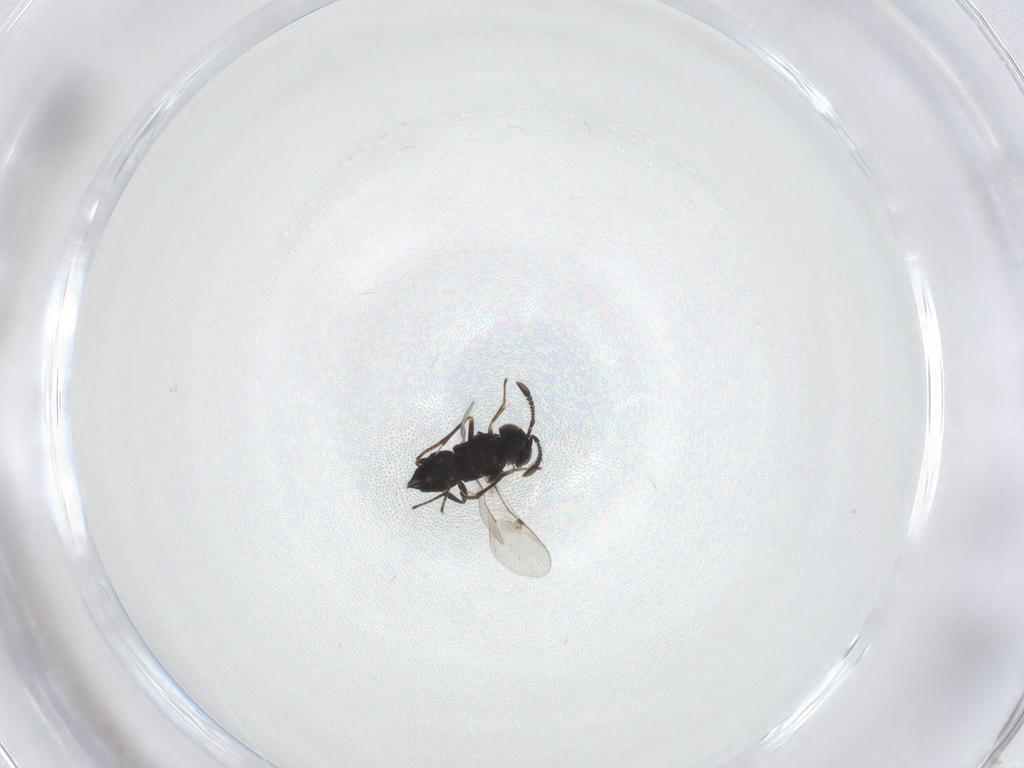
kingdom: Animalia
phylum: Arthropoda
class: Insecta
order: Hymenoptera
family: Encyrtidae
